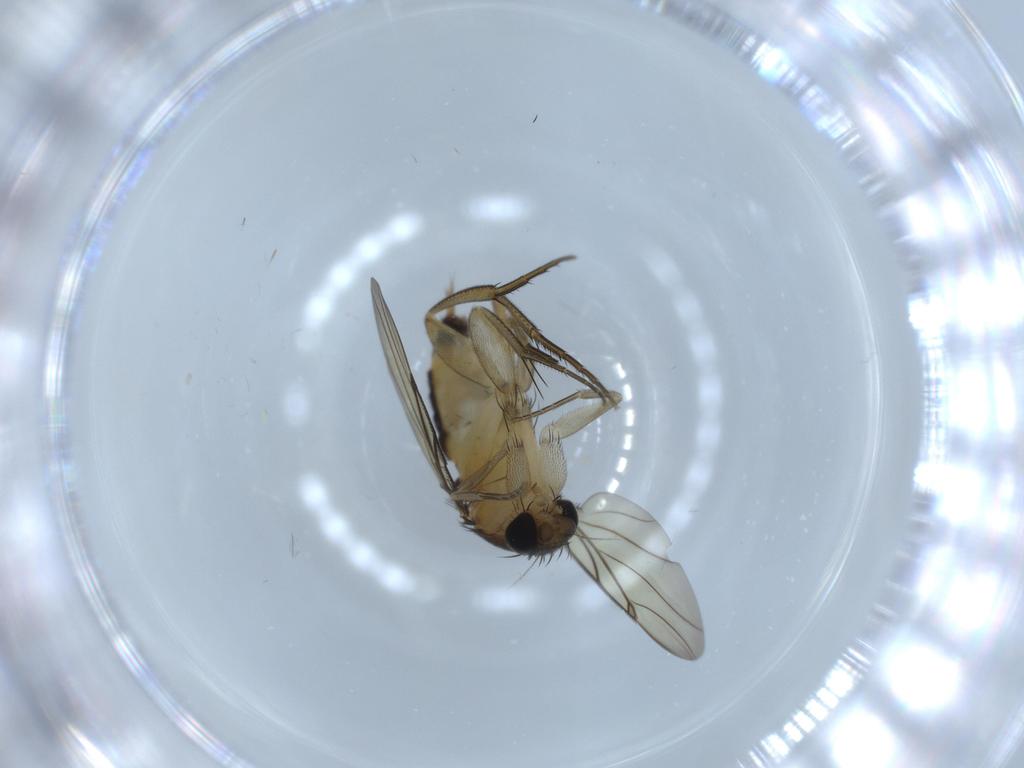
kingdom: Animalia
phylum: Arthropoda
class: Insecta
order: Diptera
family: Phoridae
